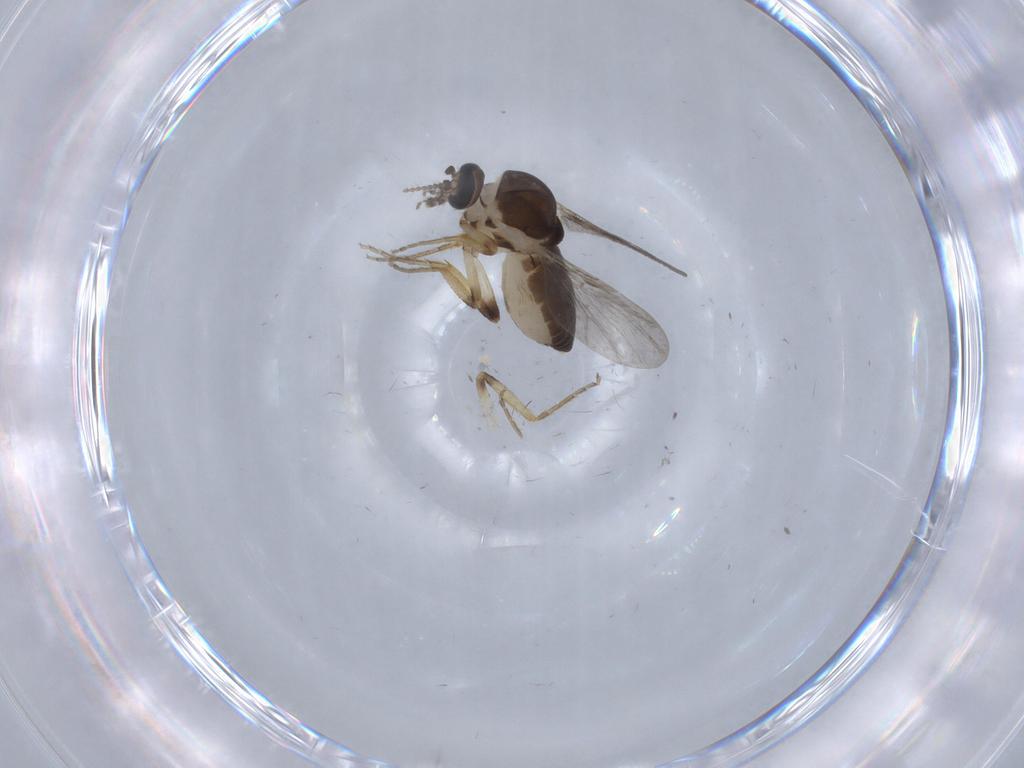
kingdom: Animalia
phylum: Arthropoda
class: Insecta
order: Diptera
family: Ceratopogonidae
